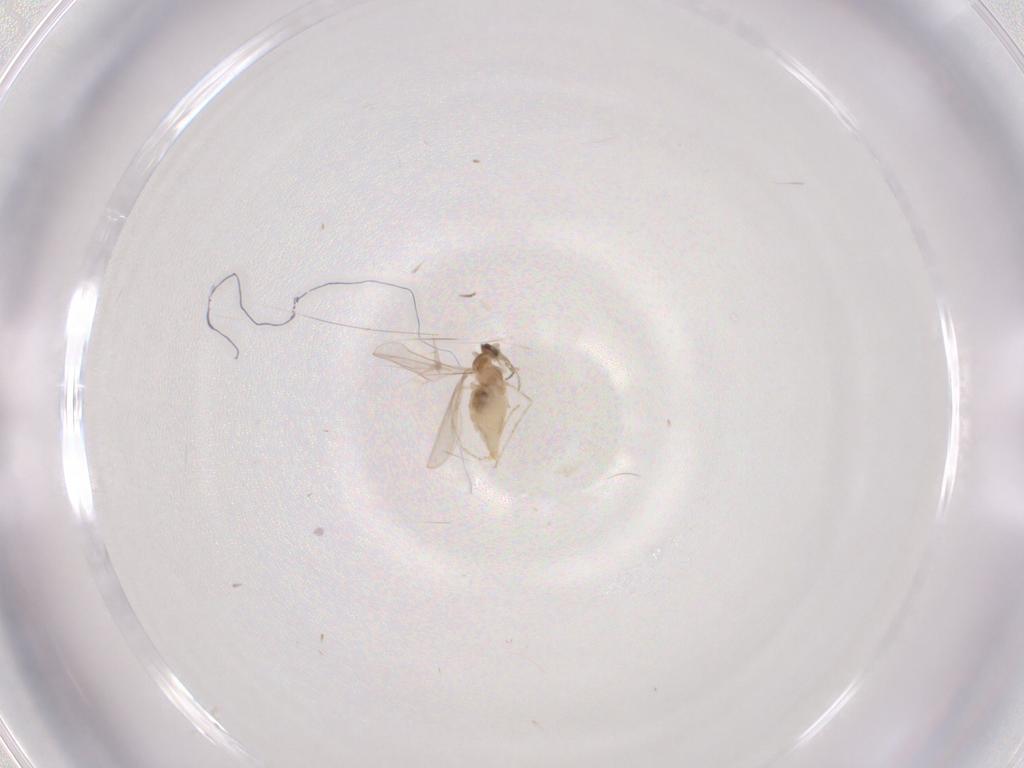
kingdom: Animalia
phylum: Arthropoda
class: Insecta
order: Diptera
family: Cecidomyiidae
